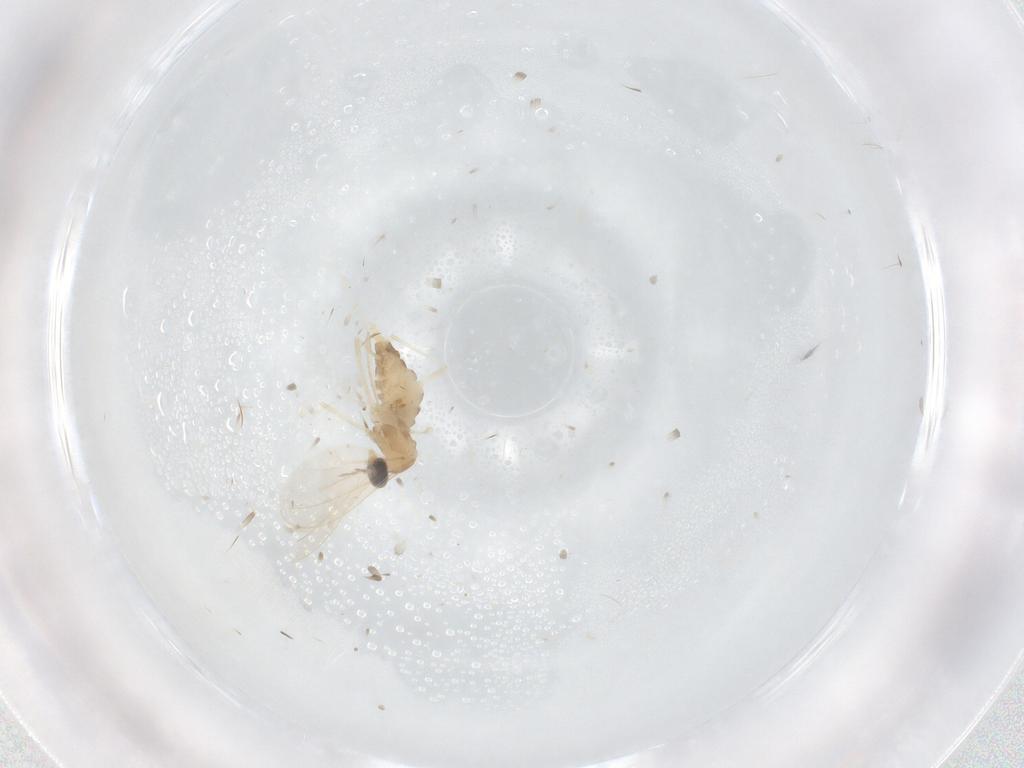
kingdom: Animalia
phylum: Arthropoda
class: Insecta
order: Diptera
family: Cecidomyiidae
